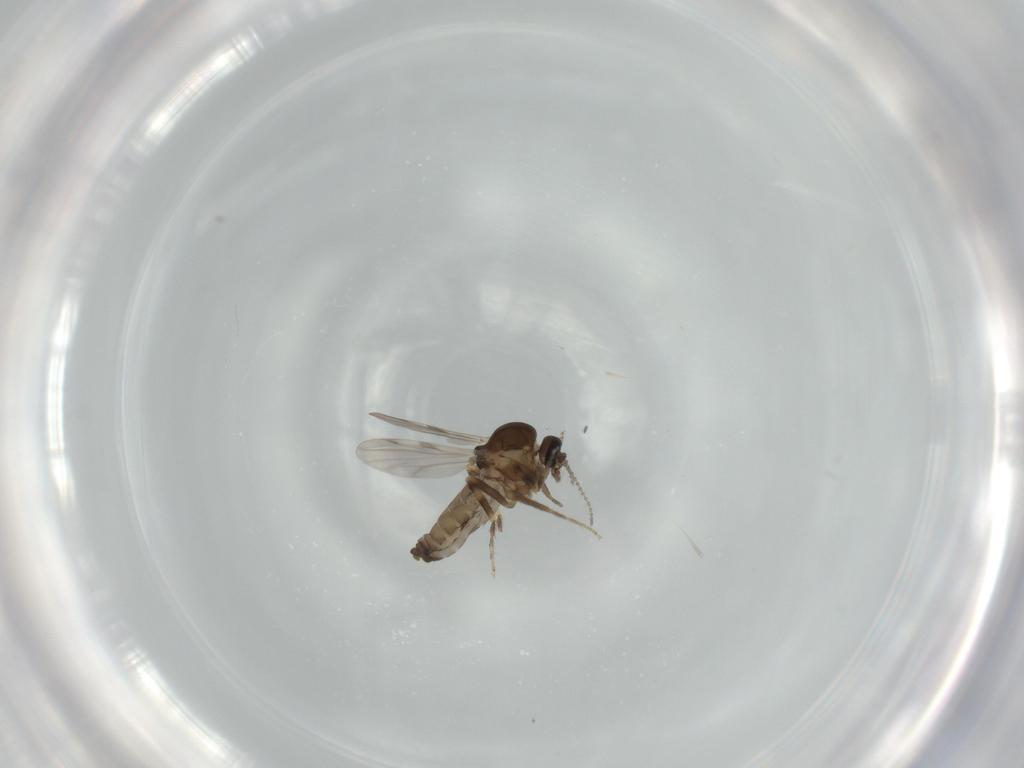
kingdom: Animalia
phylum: Arthropoda
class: Insecta
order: Diptera
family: Ceratopogonidae
